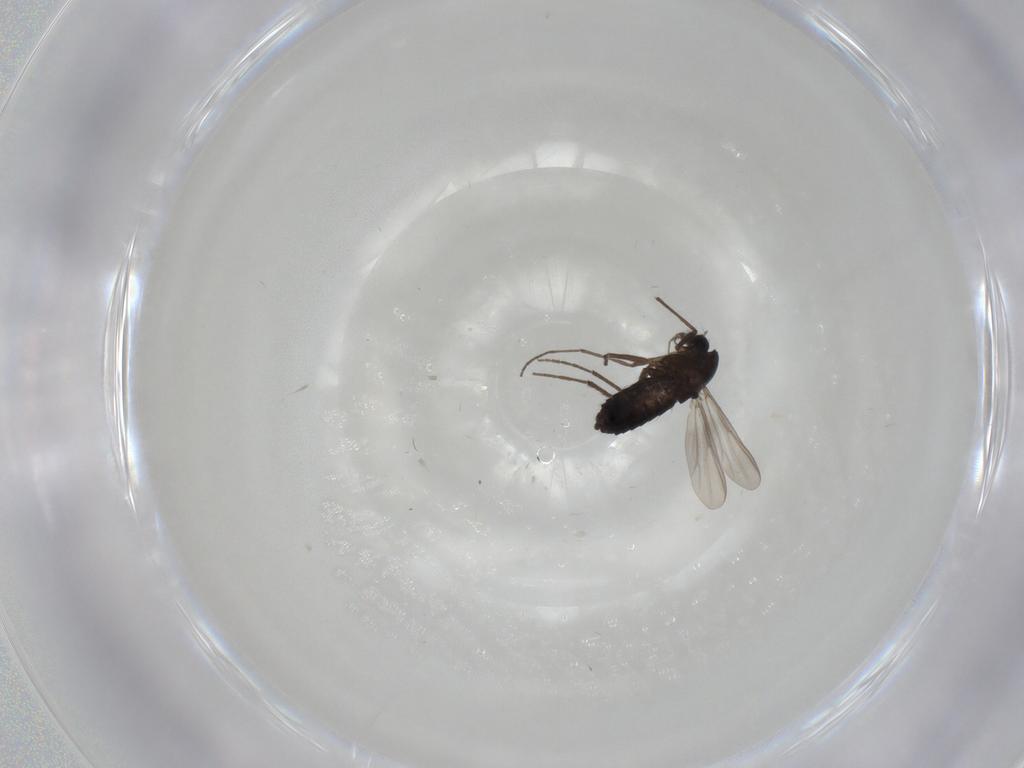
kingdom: Animalia
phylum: Arthropoda
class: Insecta
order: Diptera
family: Chironomidae
